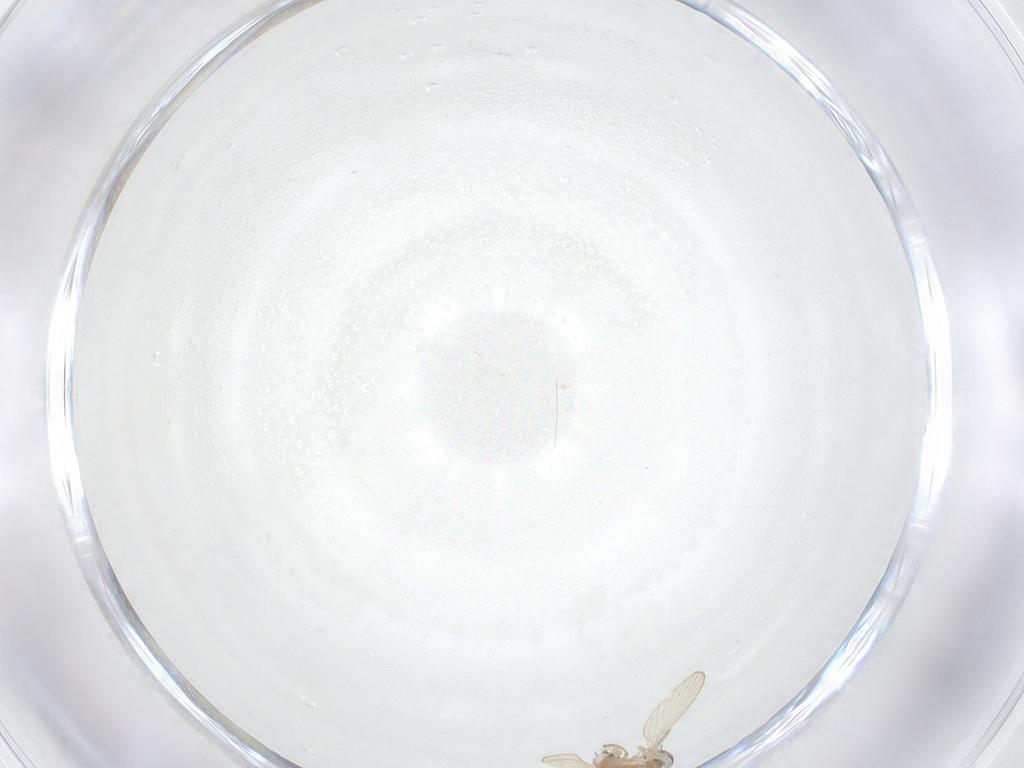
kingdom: Animalia
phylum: Arthropoda
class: Insecta
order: Diptera
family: Psychodidae
